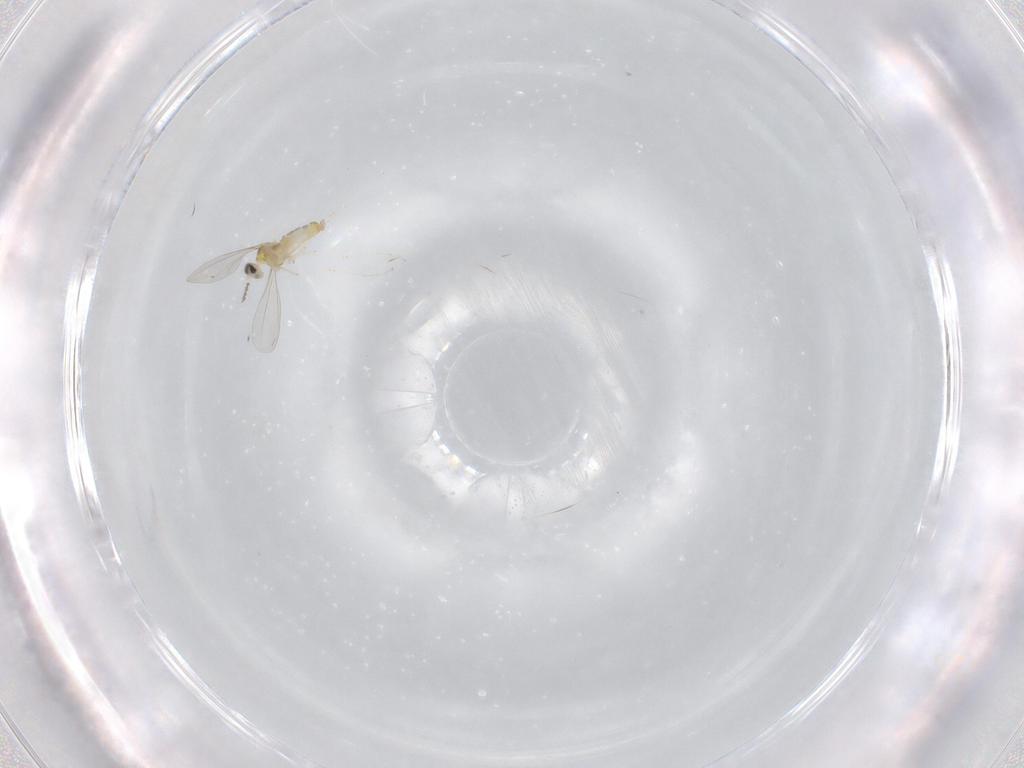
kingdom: Animalia
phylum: Arthropoda
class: Insecta
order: Diptera
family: Cecidomyiidae
